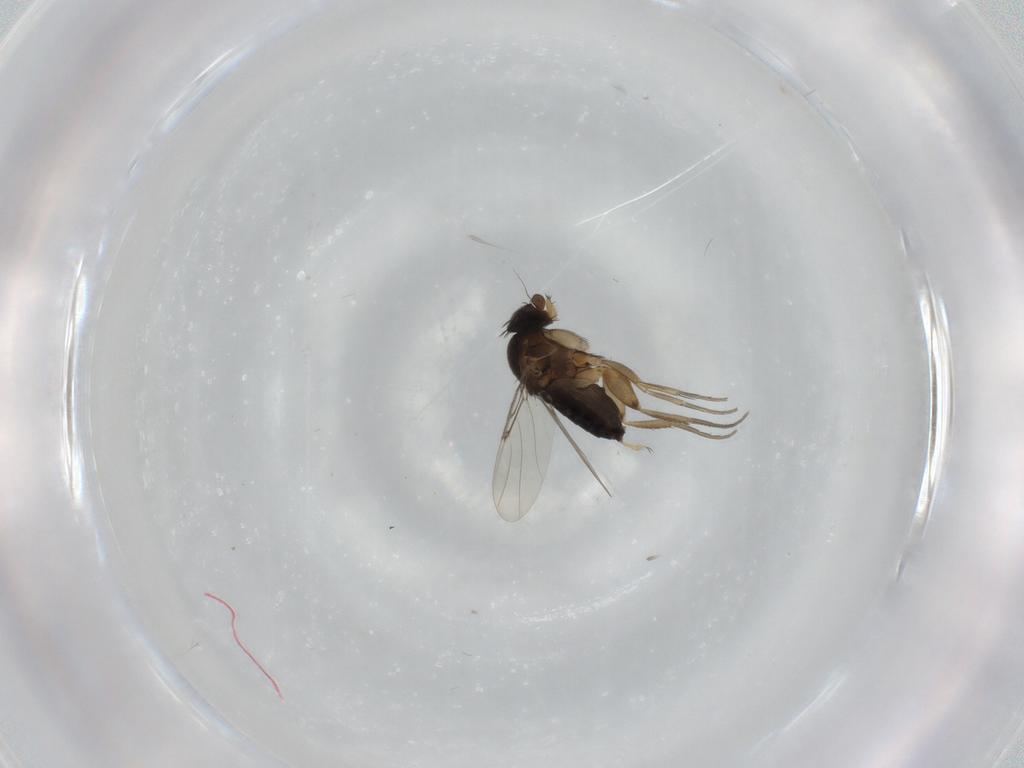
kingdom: Animalia
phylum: Arthropoda
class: Insecta
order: Diptera
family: Phoridae
